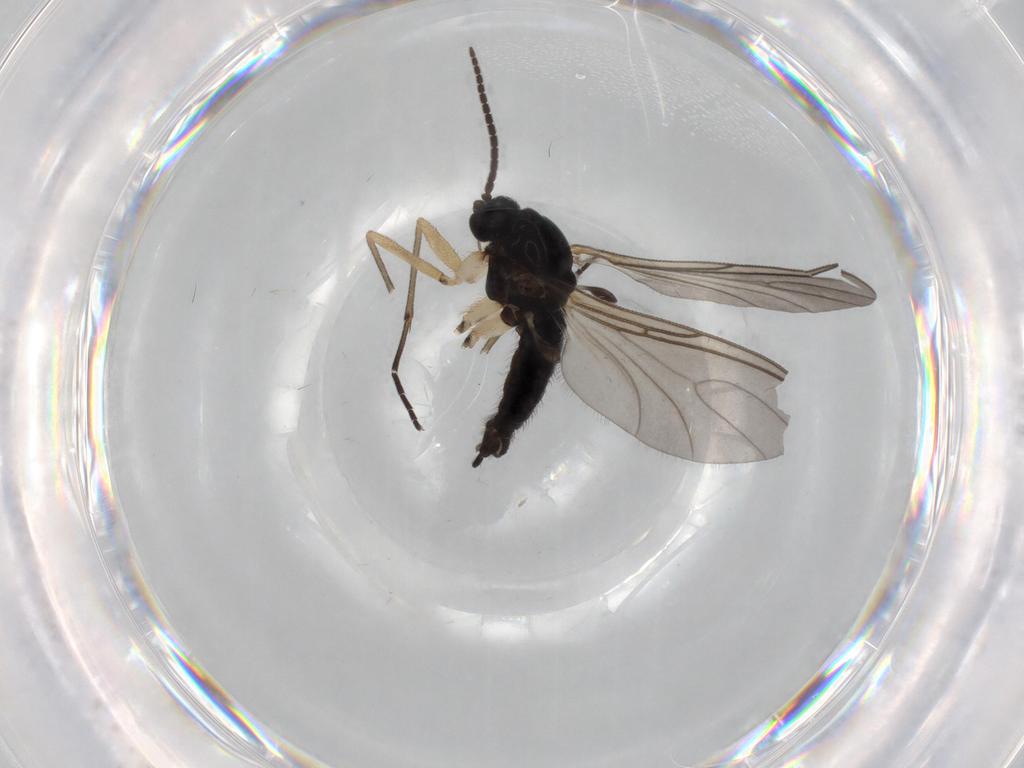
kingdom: Animalia
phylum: Arthropoda
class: Insecta
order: Diptera
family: Sciaridae
